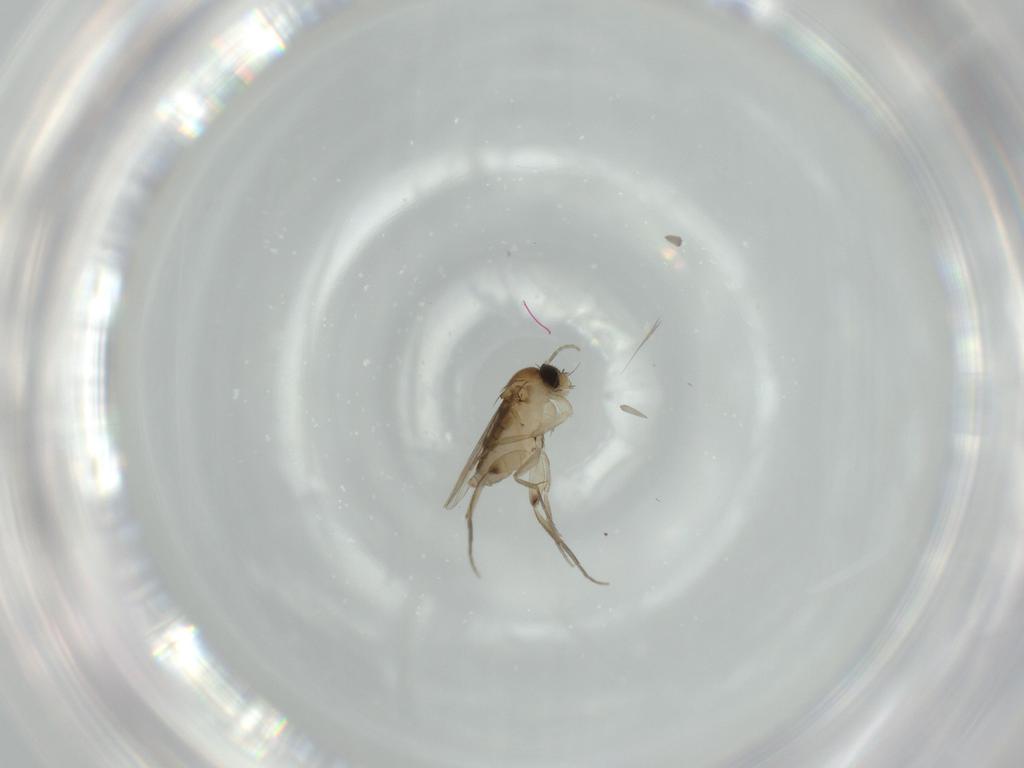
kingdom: Animalia
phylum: Arthropoda
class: Insecta
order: Diptera
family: Phoridae
